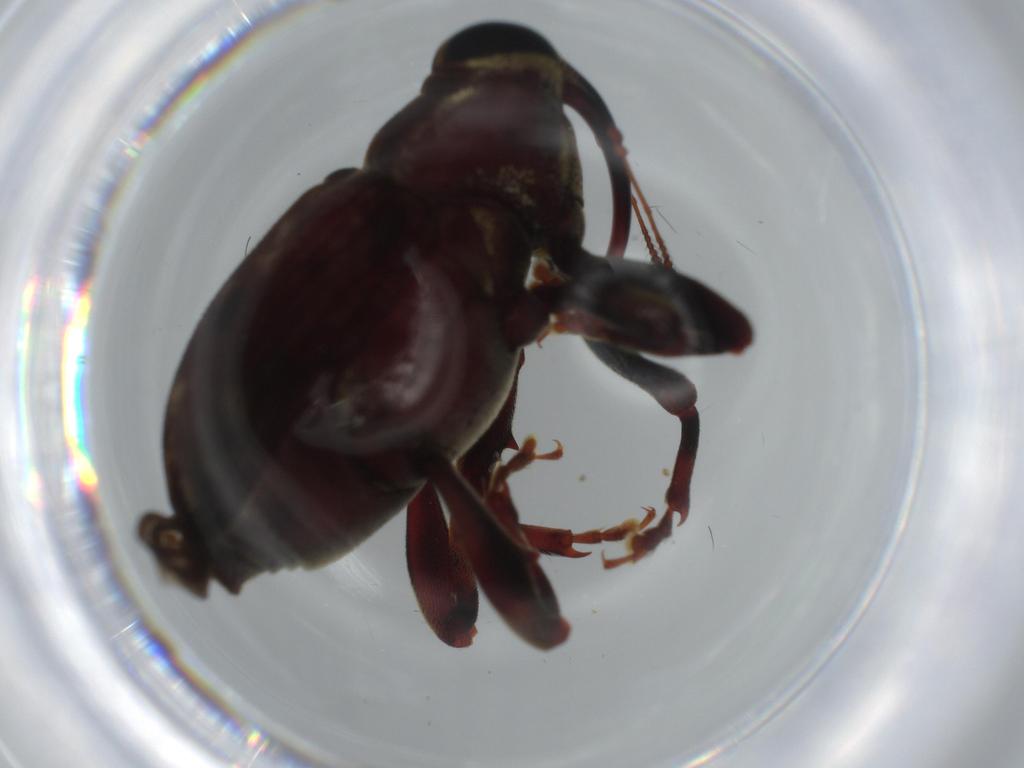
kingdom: Animalia
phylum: Arthropoda
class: Insecta
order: Coleoptera
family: Curculionidae
